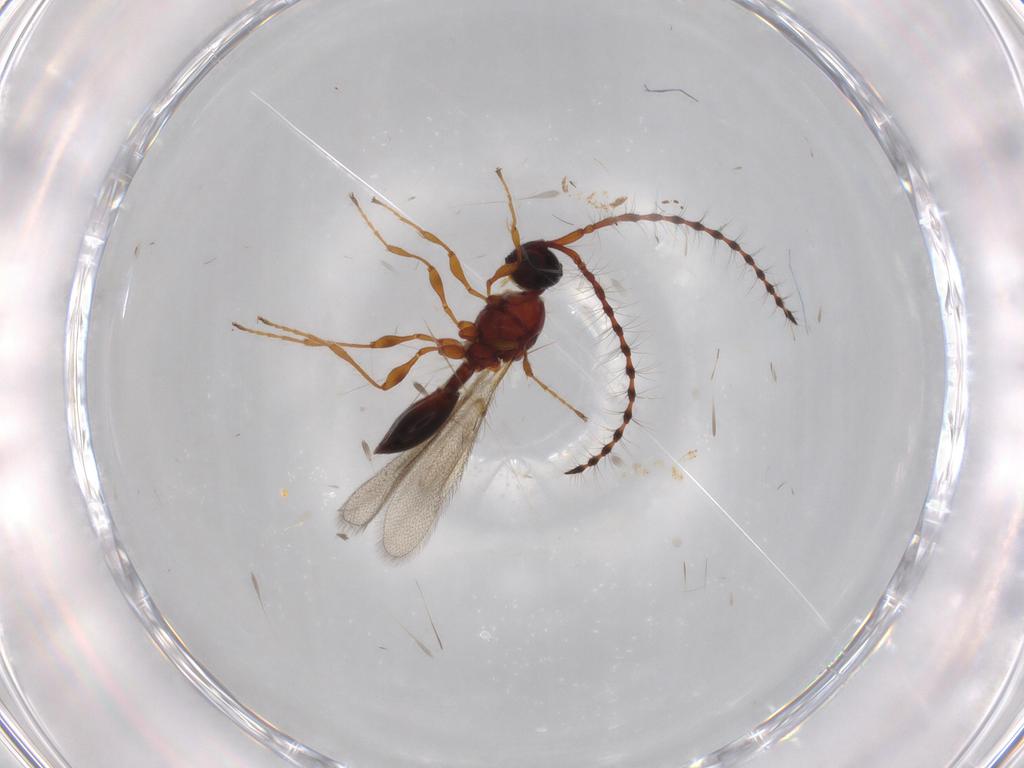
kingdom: Animalia
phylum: Arthropoda
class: Insecta
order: Hymenoptera
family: Diapriidae
